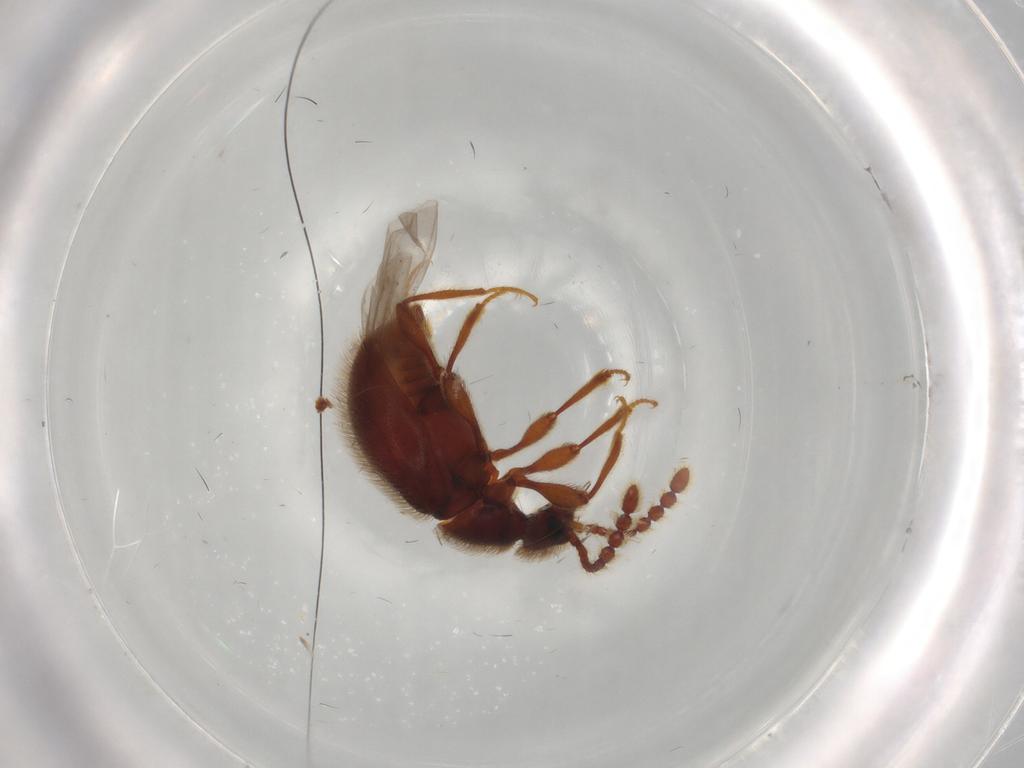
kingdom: Animalia
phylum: Arthropoda
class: Insecta
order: Coleoptera
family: Staphylinidae
